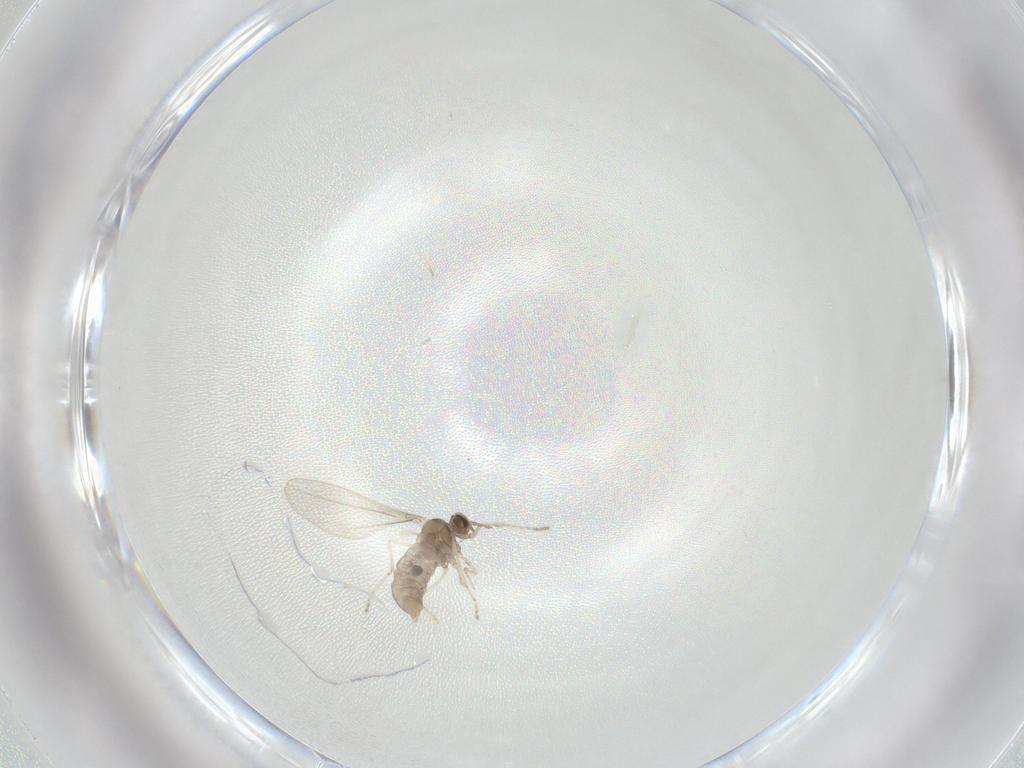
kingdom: Animalia
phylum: Arthropoda
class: Insecta
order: Diptera
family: Cecidomyiidae
